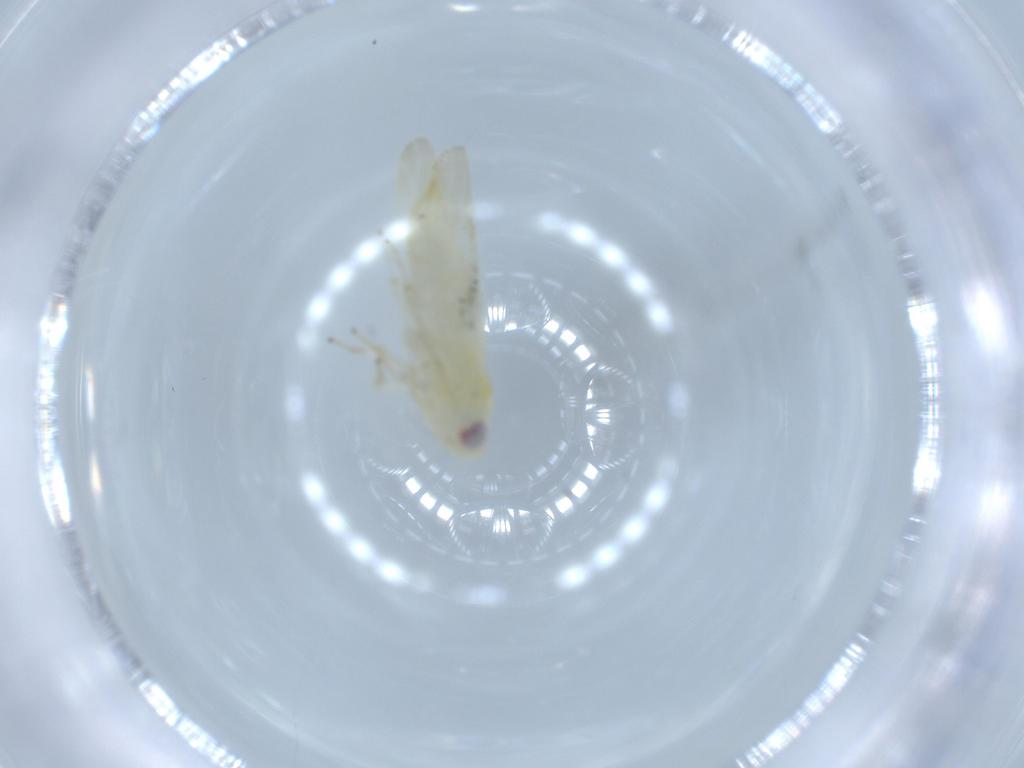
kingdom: Animalia
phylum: Arthropoda
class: Insecta
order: Hemiptera
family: Cicadellidae
